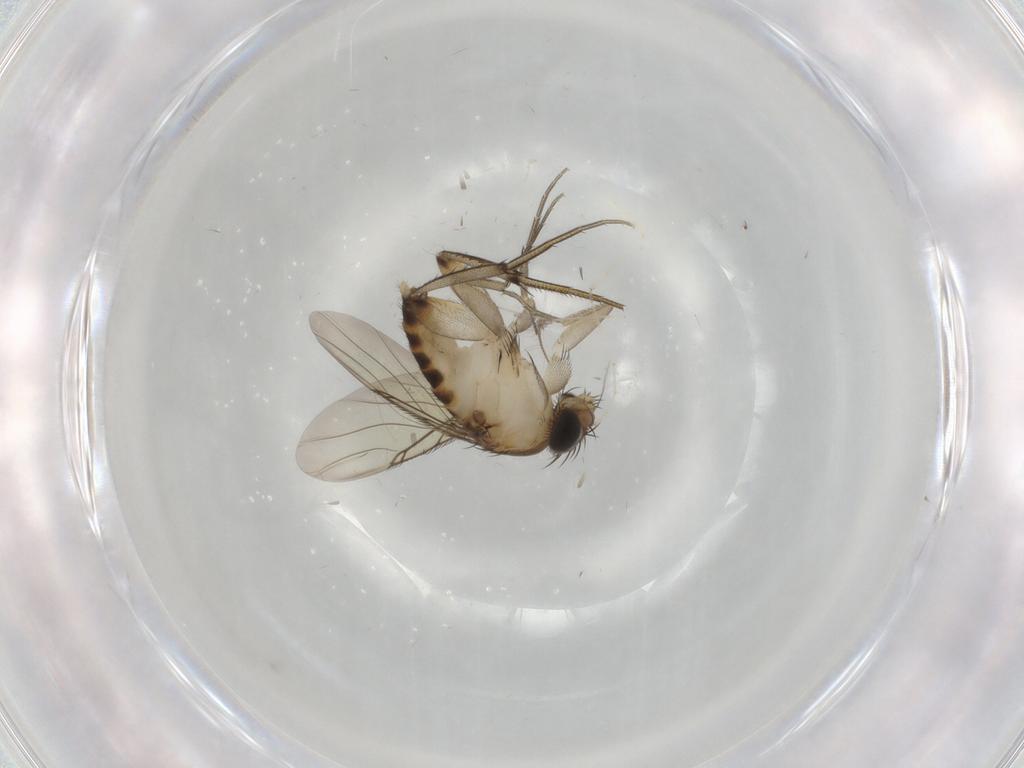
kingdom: Animalia
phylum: Arthropoda
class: Insecta
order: Diptera
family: Phoridae
